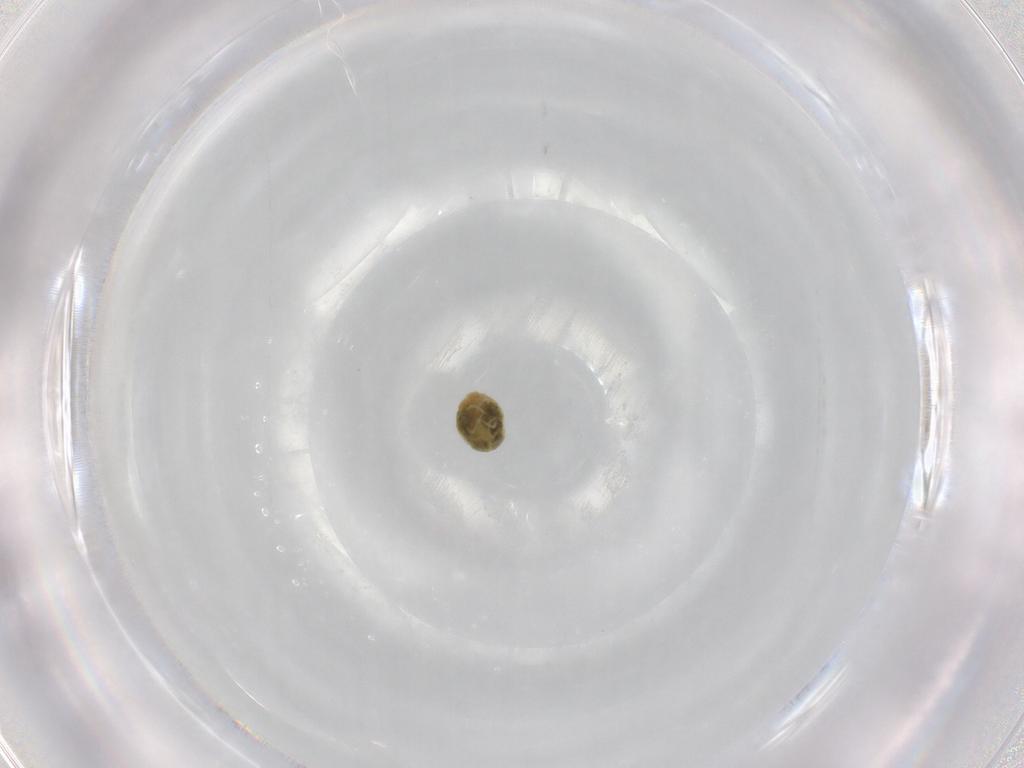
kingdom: Animalia
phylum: Arthropoda
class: Arachnida
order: Trombidiformes
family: Tetranychidae
